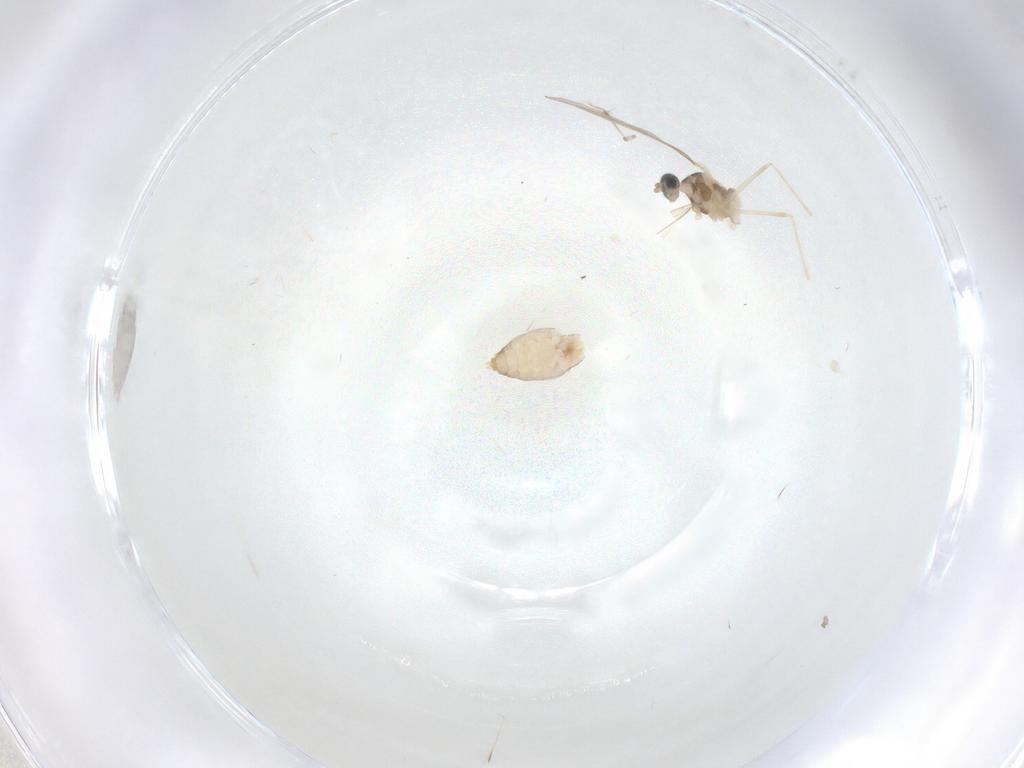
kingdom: Animalia
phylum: Arthropoda
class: Insecta
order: Diptera
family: Cecidomyiidae
